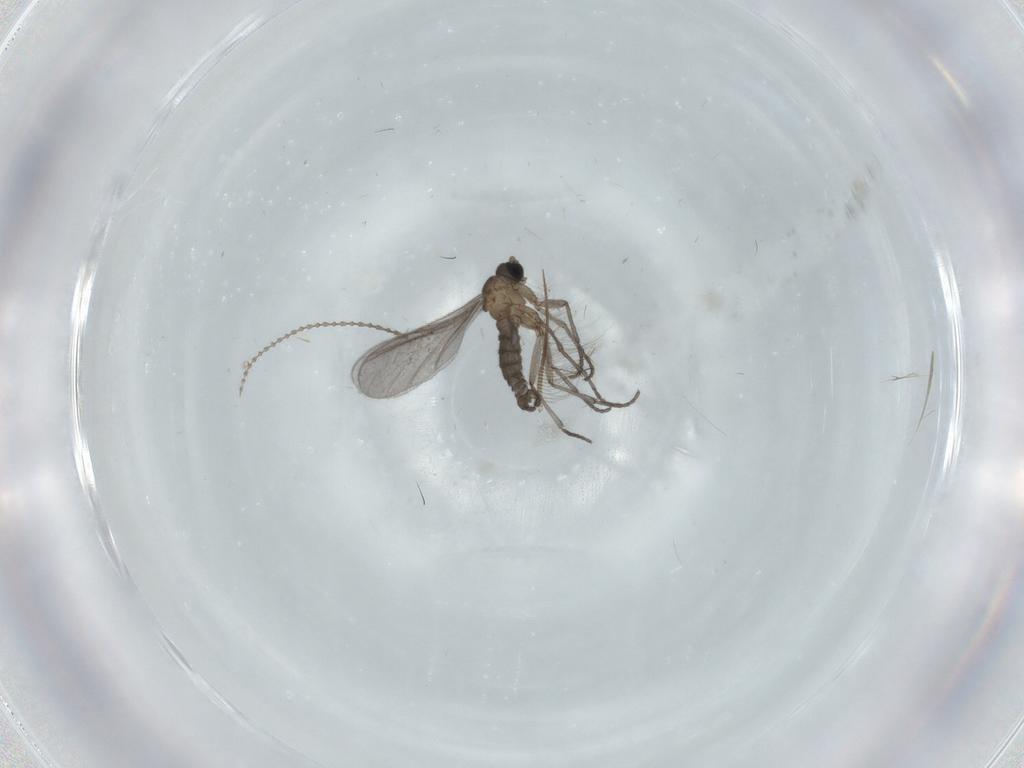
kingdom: Animalia
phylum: Arthropoda
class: Insecta
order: Diptera
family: Sciaridae
